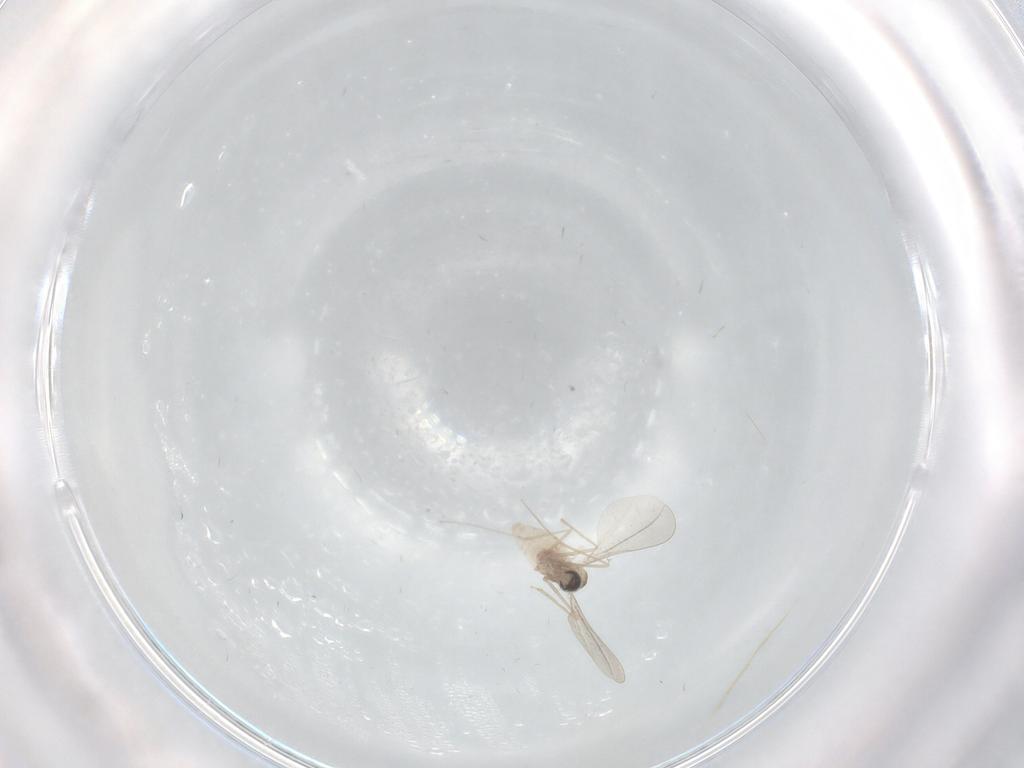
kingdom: Animalia
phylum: Arthropoda
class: Insecta
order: Diptera
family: Cecidomyiidae
